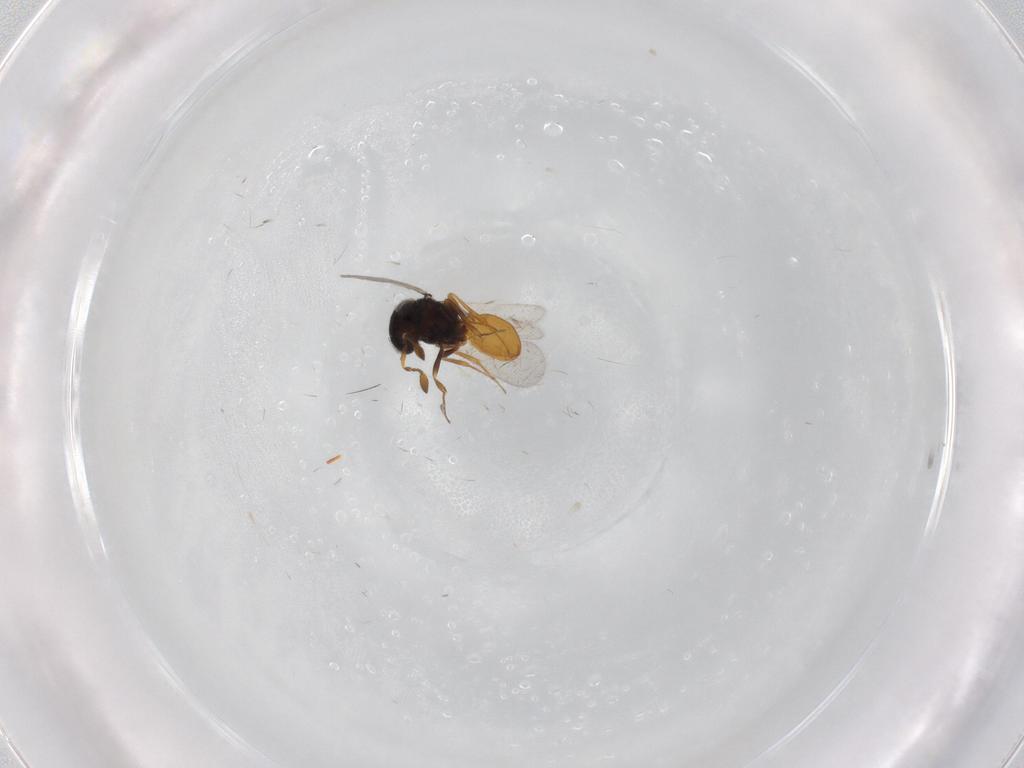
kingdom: Animalia
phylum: Arthropoda
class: Insecta
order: Hymenoptera
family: Scelionidae
